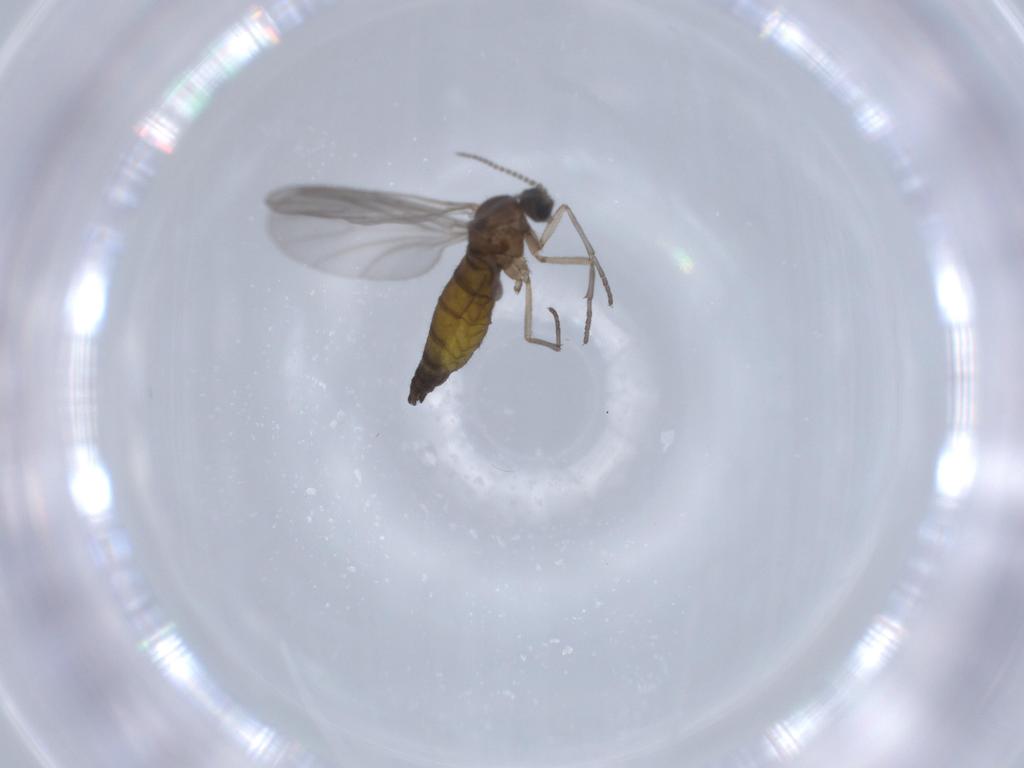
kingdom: Animalia
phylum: Arthropoda
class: Insecta
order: Diptera
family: Sciaridae
